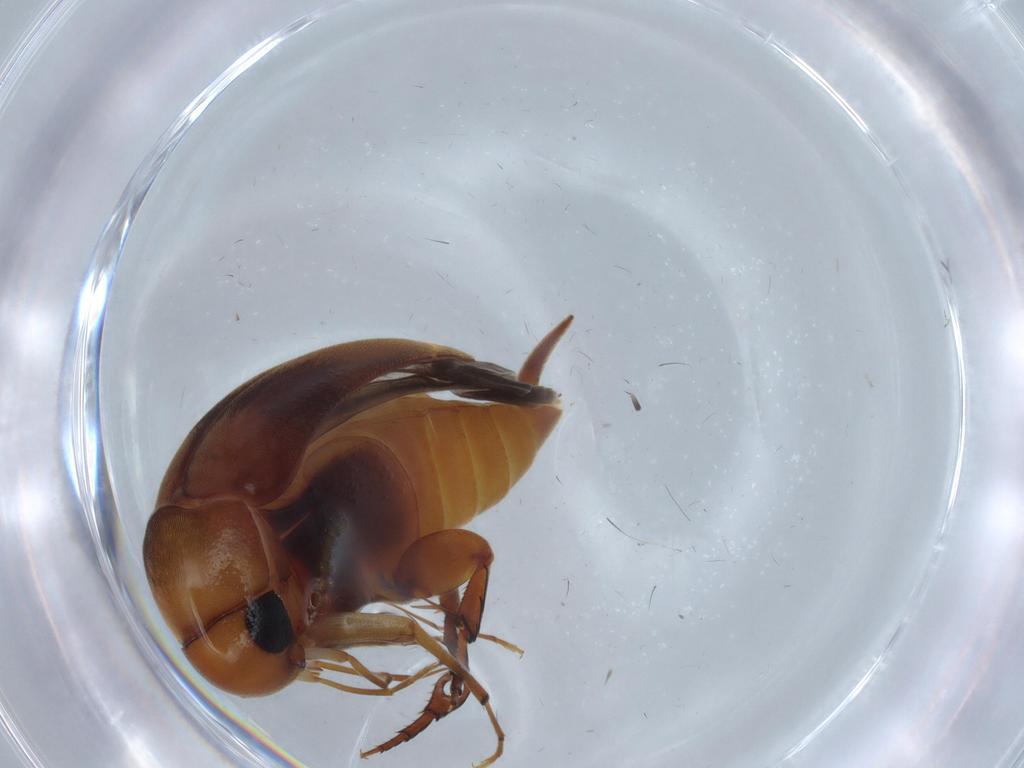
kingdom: Animalia
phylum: Arthropoda
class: Insecta
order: Coleoptera
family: Mordellidae
